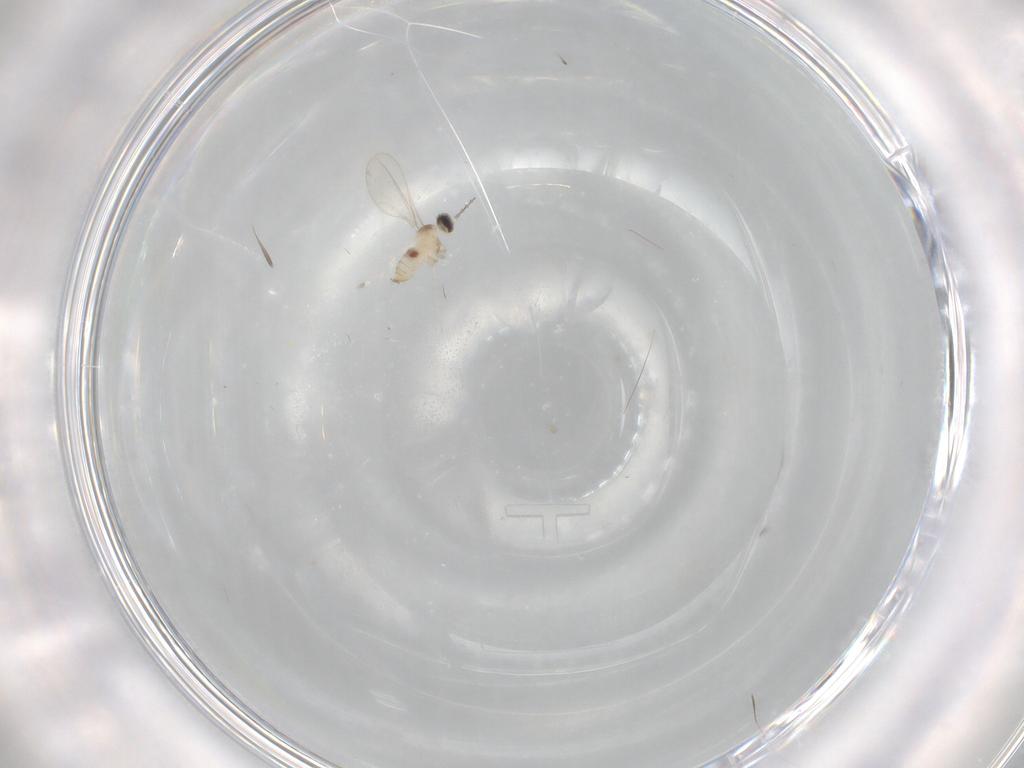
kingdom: Animalia
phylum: Arthropoda
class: Insecta
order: Diptera
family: Cecidomyiidae
